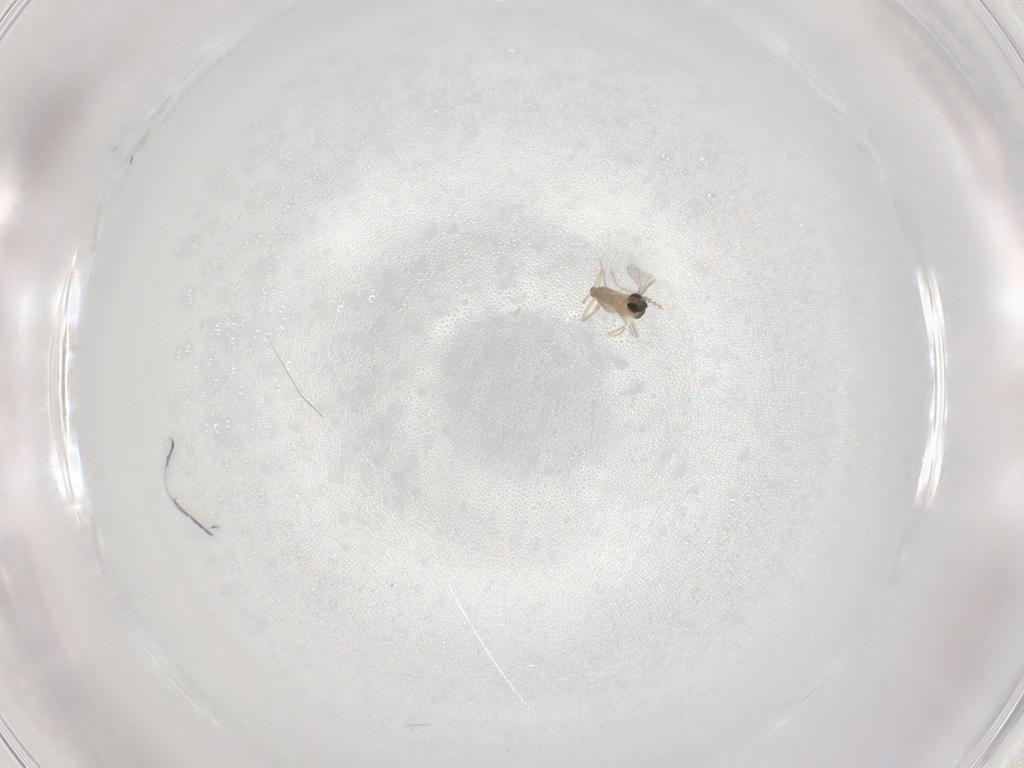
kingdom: Animalia
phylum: Arthropoda
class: Insecta
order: Diptera
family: Cecidomyiidae
